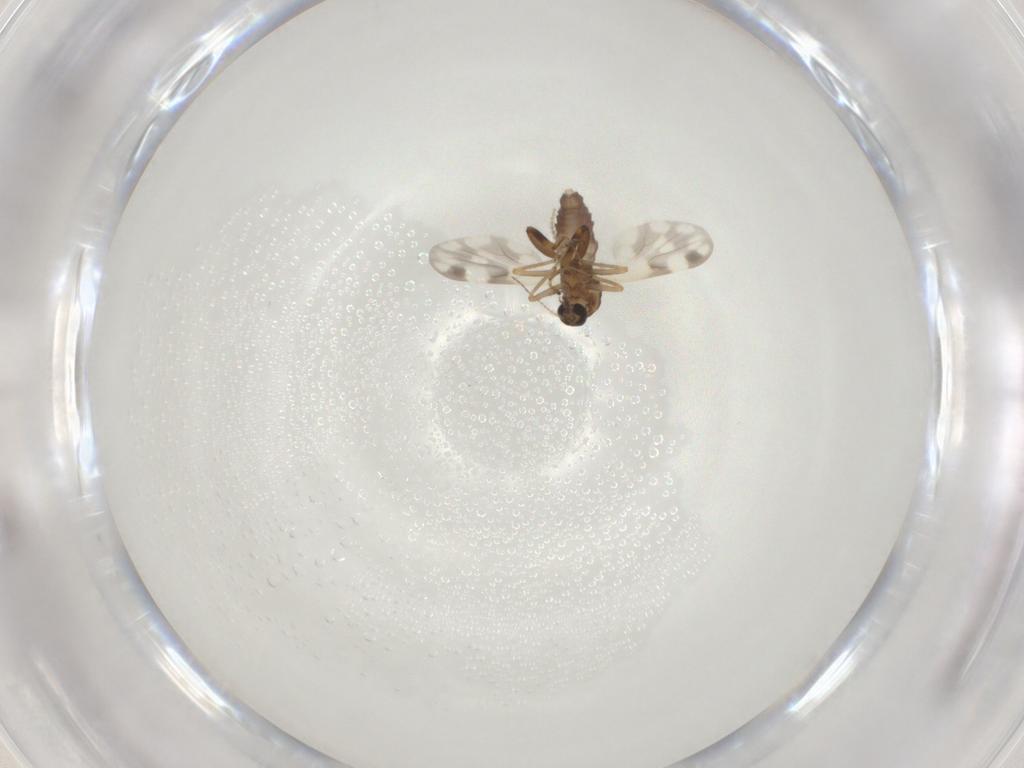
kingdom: Animalia
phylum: Arthropoda
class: Insecta
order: Diptera
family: Ceratopogonidae
